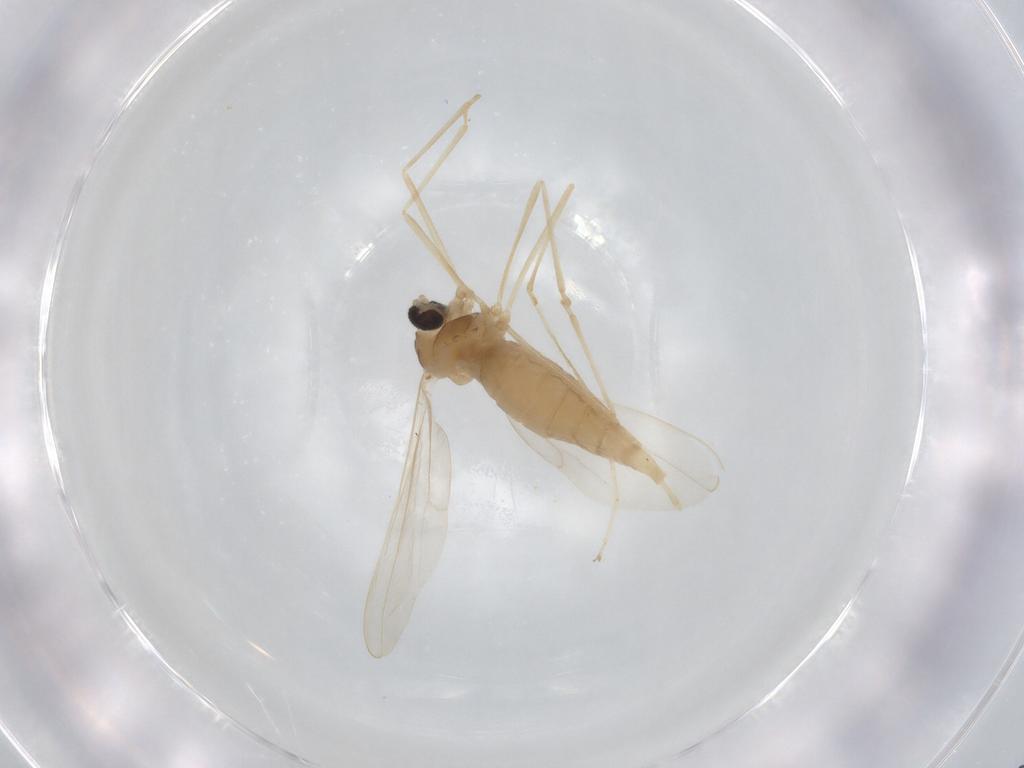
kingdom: Animalia
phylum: Arthropoda
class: Insecta
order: Diptera
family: Cecidomyiidae
